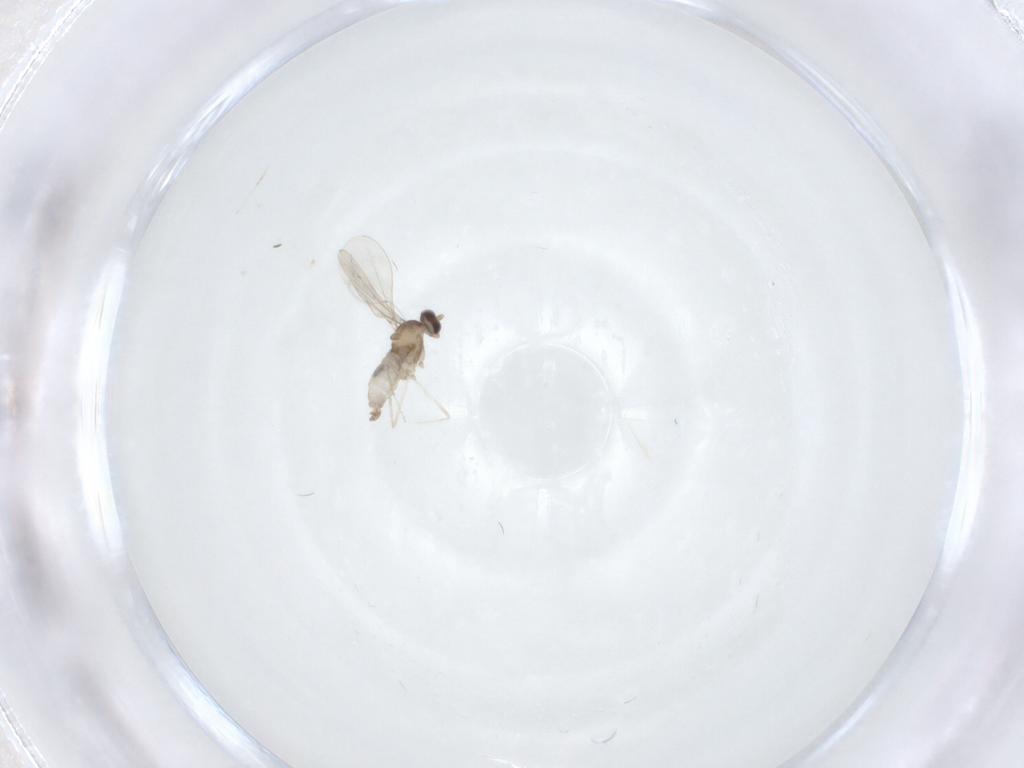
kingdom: Animalia
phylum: Arthropoda
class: Insecta
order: Diptera
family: Cecidomyiidae
